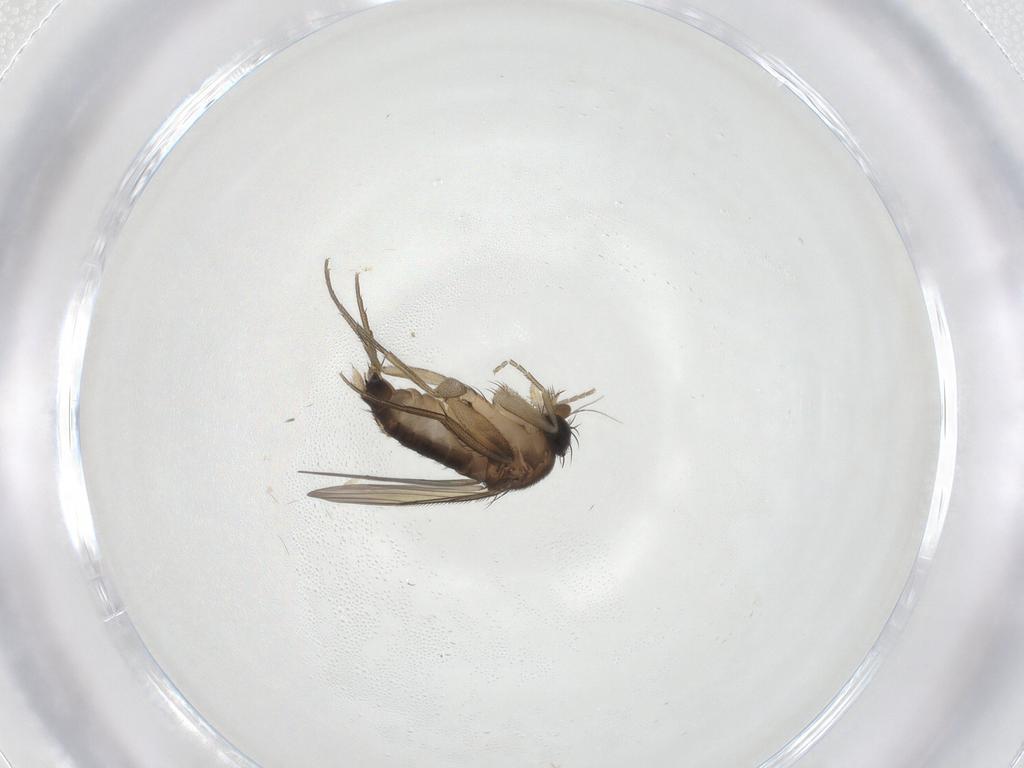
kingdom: Animalia
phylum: Arthropoda
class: Insecta
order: Diptera
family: Phoridae
